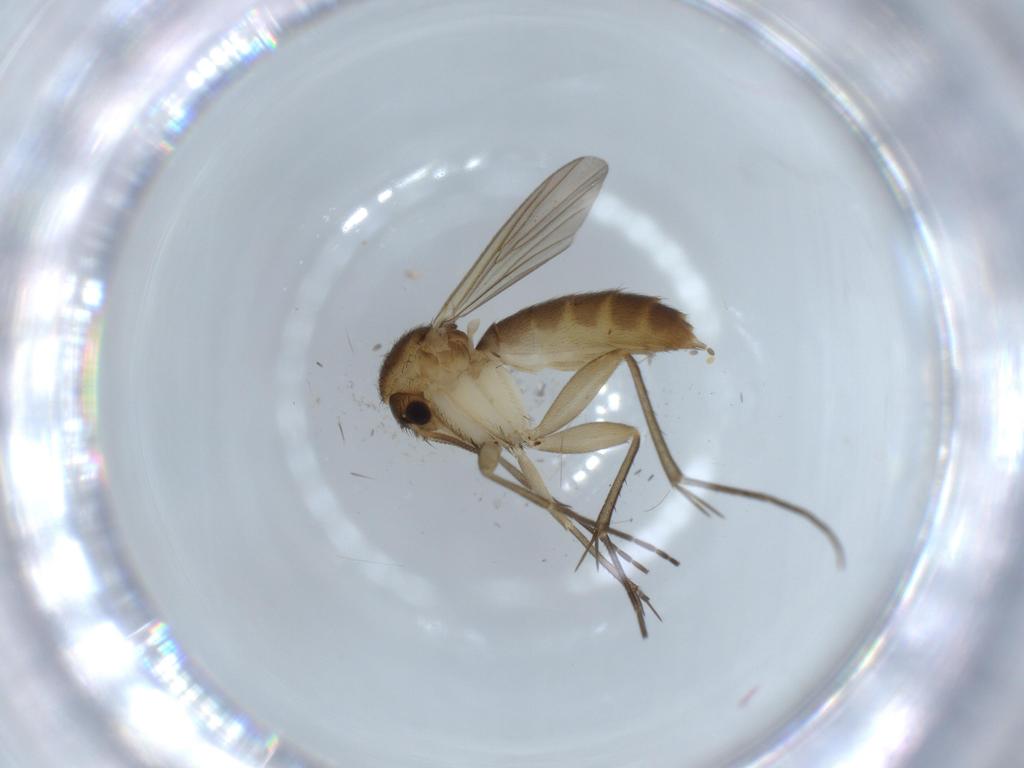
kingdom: Animalia
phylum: Arthropoda
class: Insecta
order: Diptera
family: Mycetophilidae
